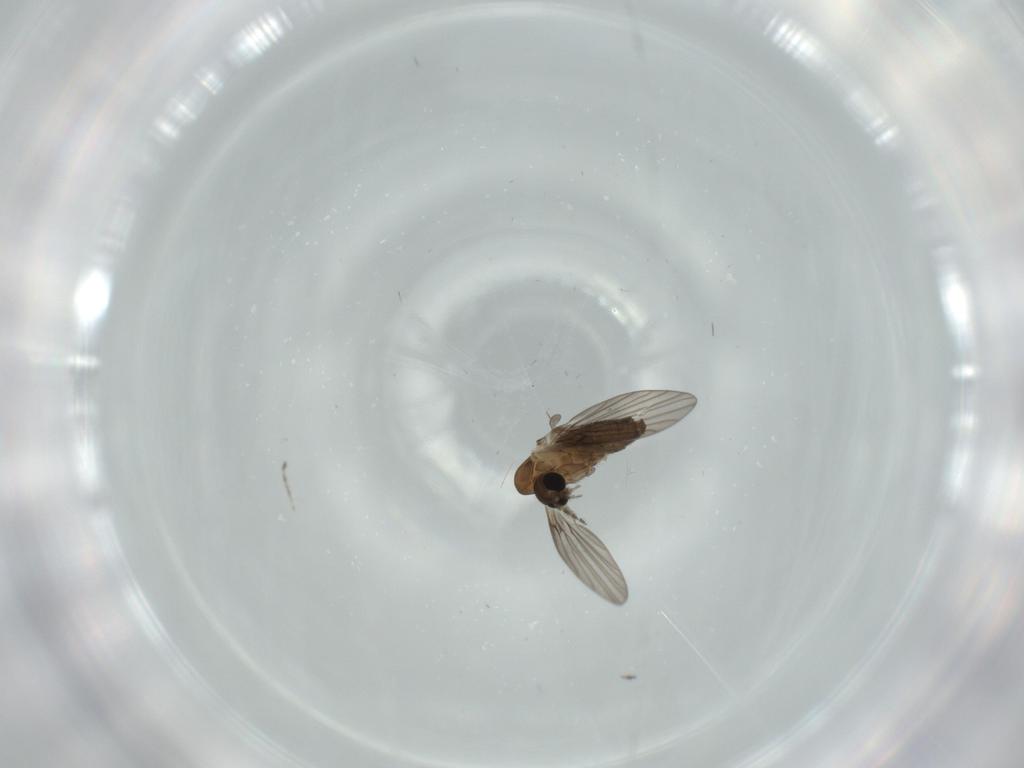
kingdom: Animalia
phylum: Arthropoda
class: Insecta
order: Diptera
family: Psychodidae
